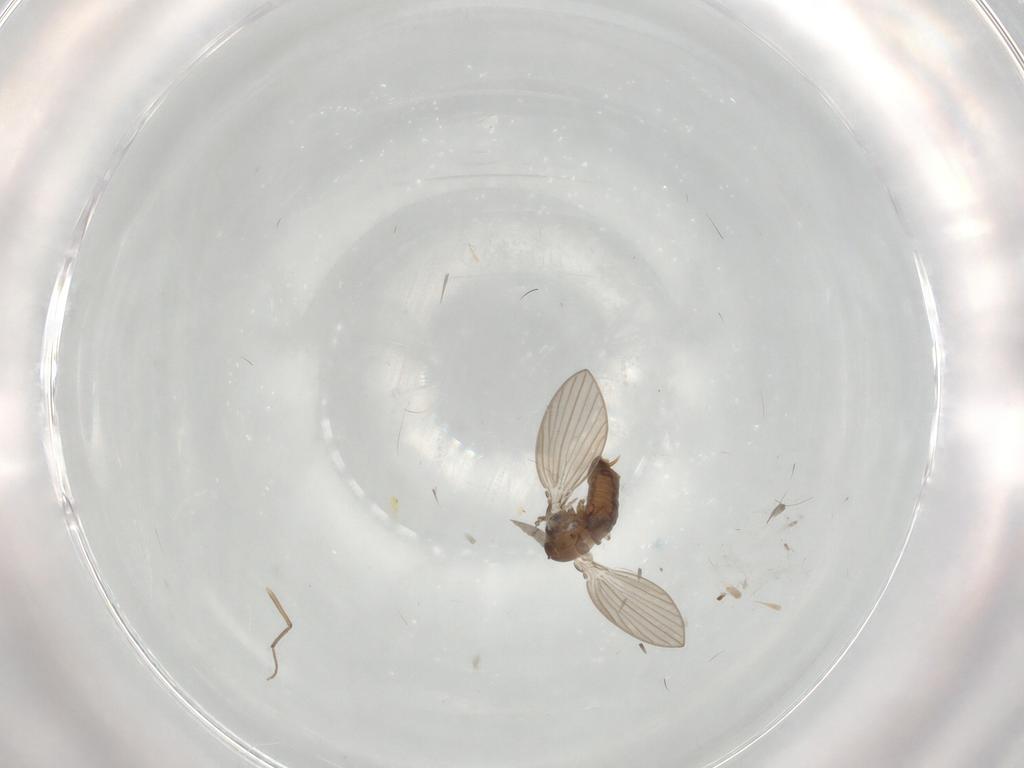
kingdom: Animalia
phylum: Arthropoda
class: Insecta
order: Diptera
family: Psychodidae
